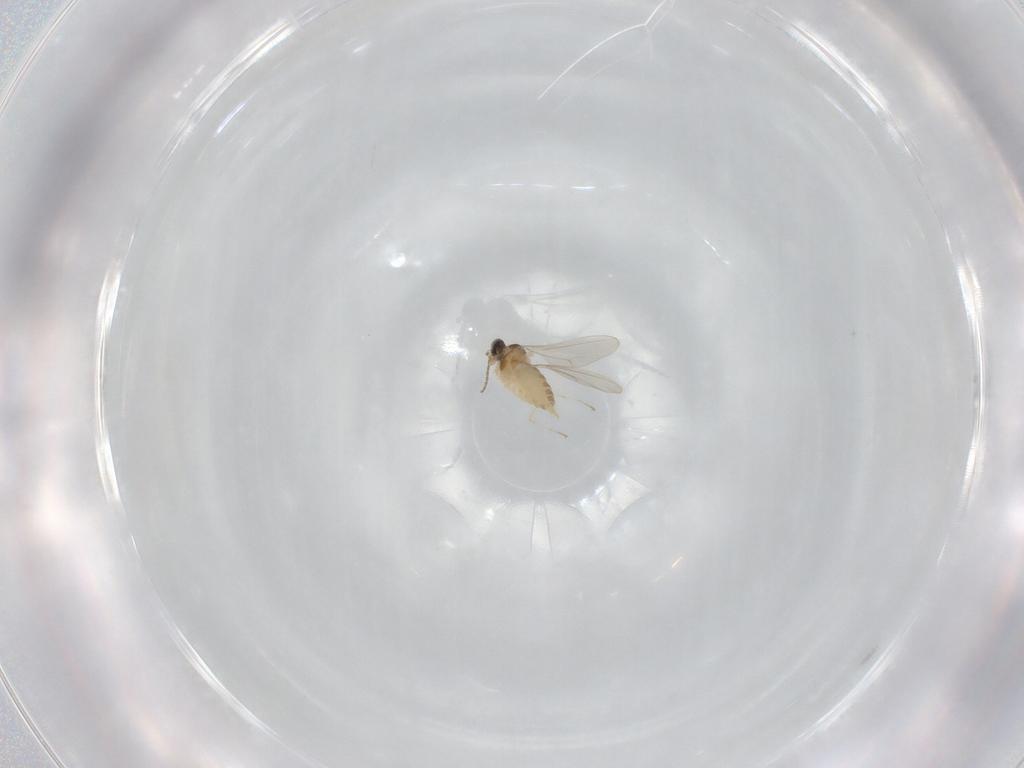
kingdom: Animalia
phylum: Arthropoda
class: Insecta
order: Diptera
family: Cecidomyiidae
